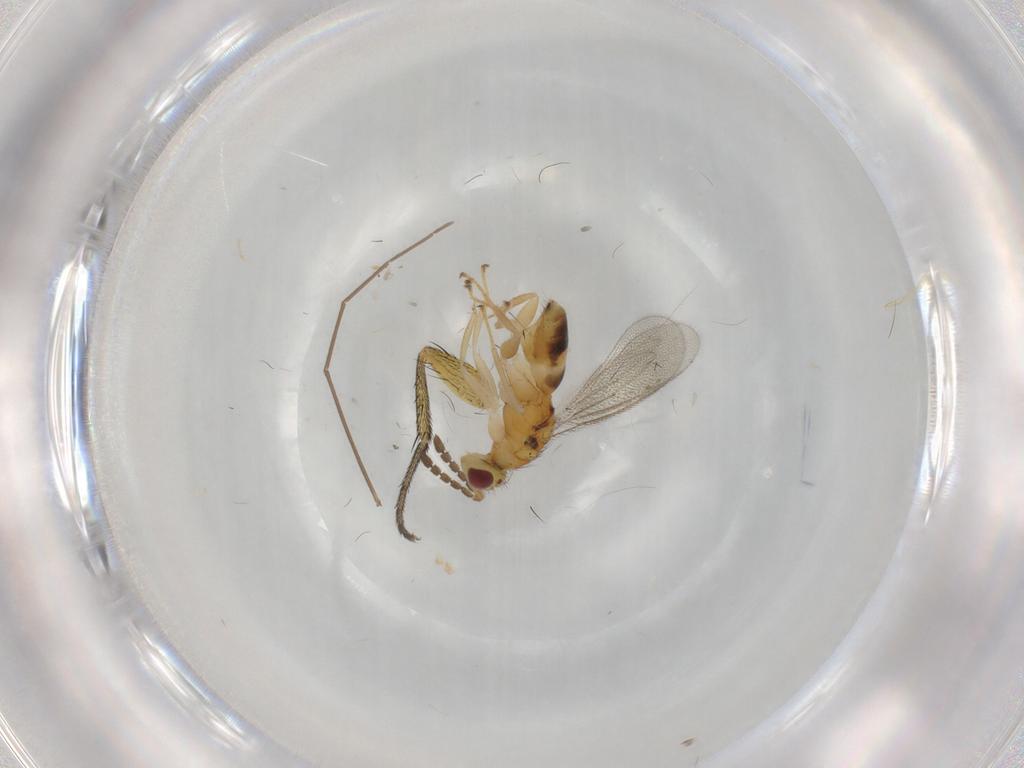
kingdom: Animalia
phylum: Arthropoda
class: Insecta
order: Hymenoptera
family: Eulophidae
